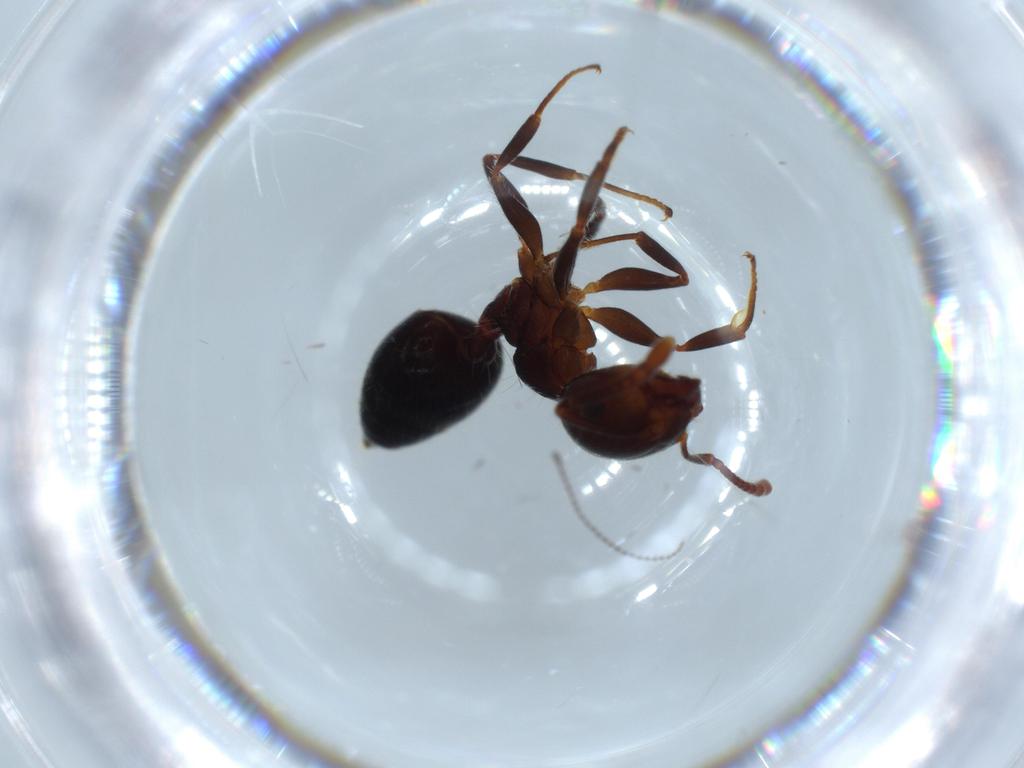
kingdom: Animalia
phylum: Arthropoda
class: Insecta
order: Hymenoptera
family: Formicidae
